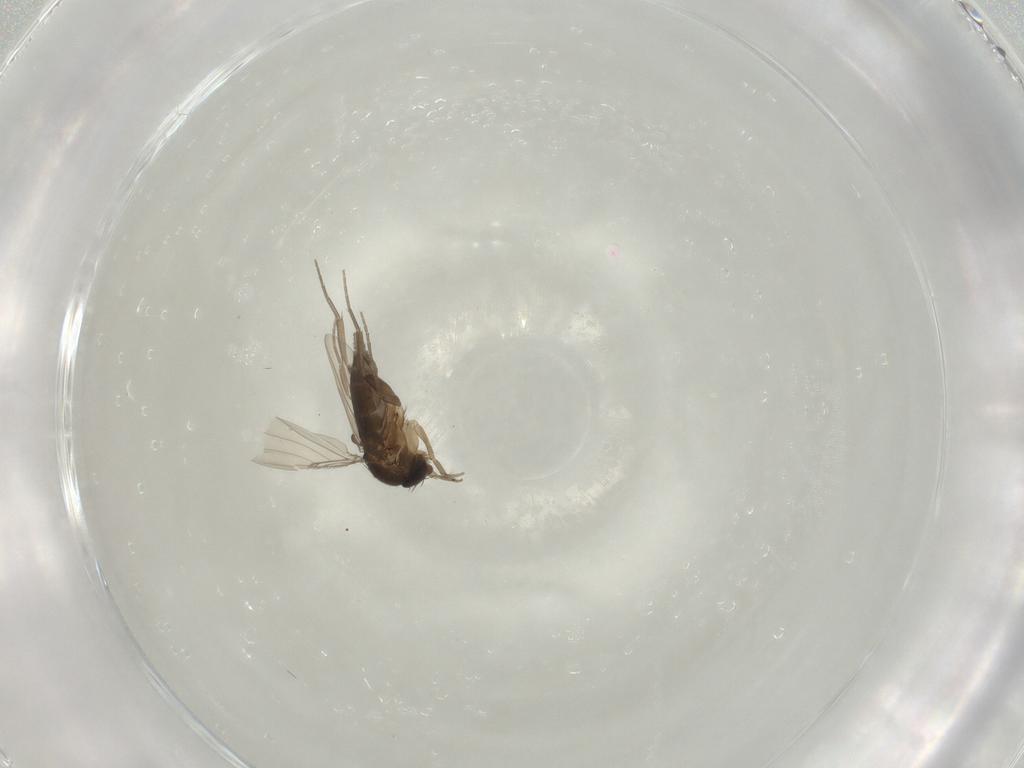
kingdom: Animalia
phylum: Arthropoda
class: Insecta
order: Diptera
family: Phoridae
